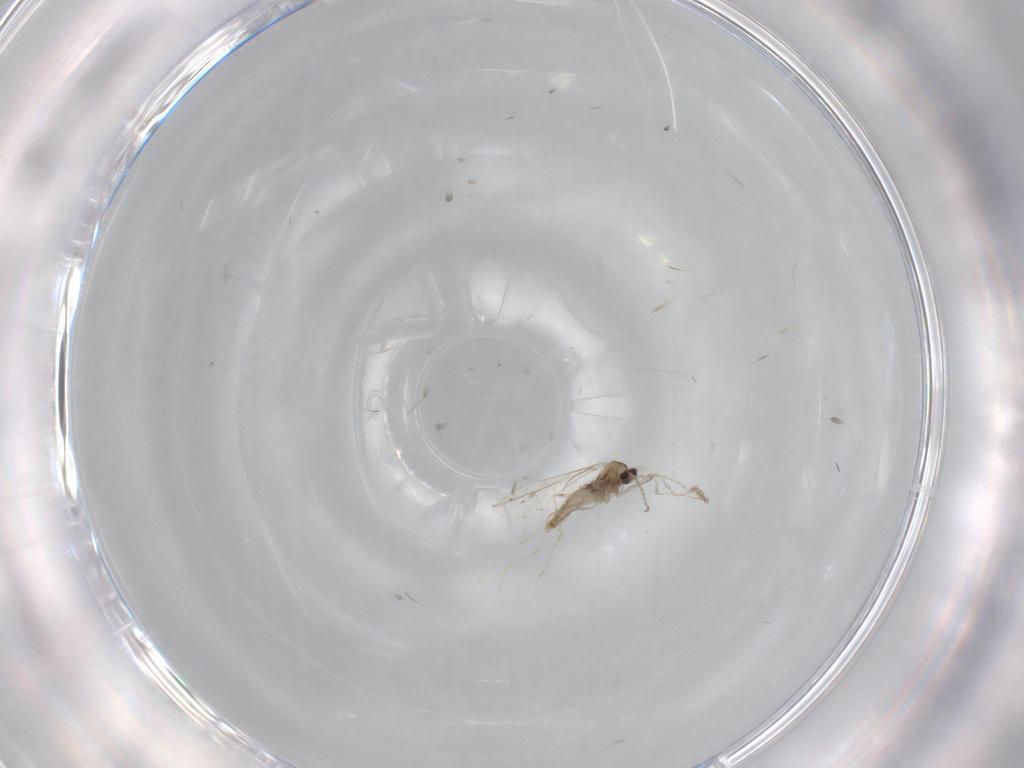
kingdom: Animalia
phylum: Arthropoda
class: Insecta
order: Diptera
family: Cecidomyiidae
